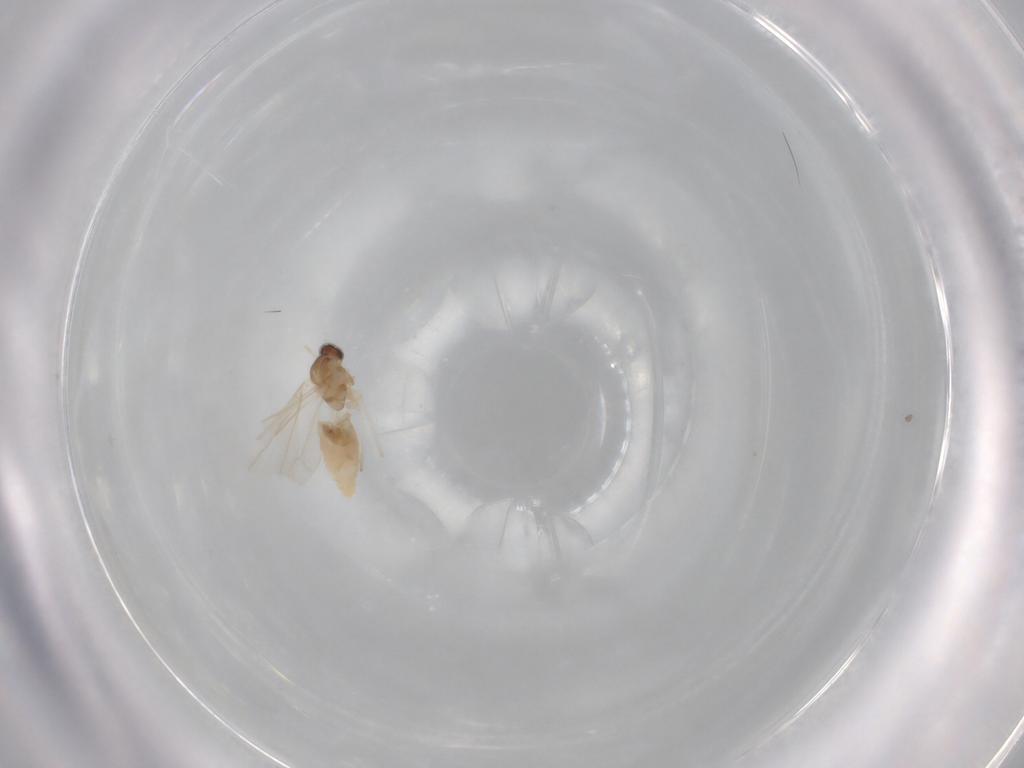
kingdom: Animalia
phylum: Arthropoda
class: Insecta
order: Diptera
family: Cecidomyiidae
